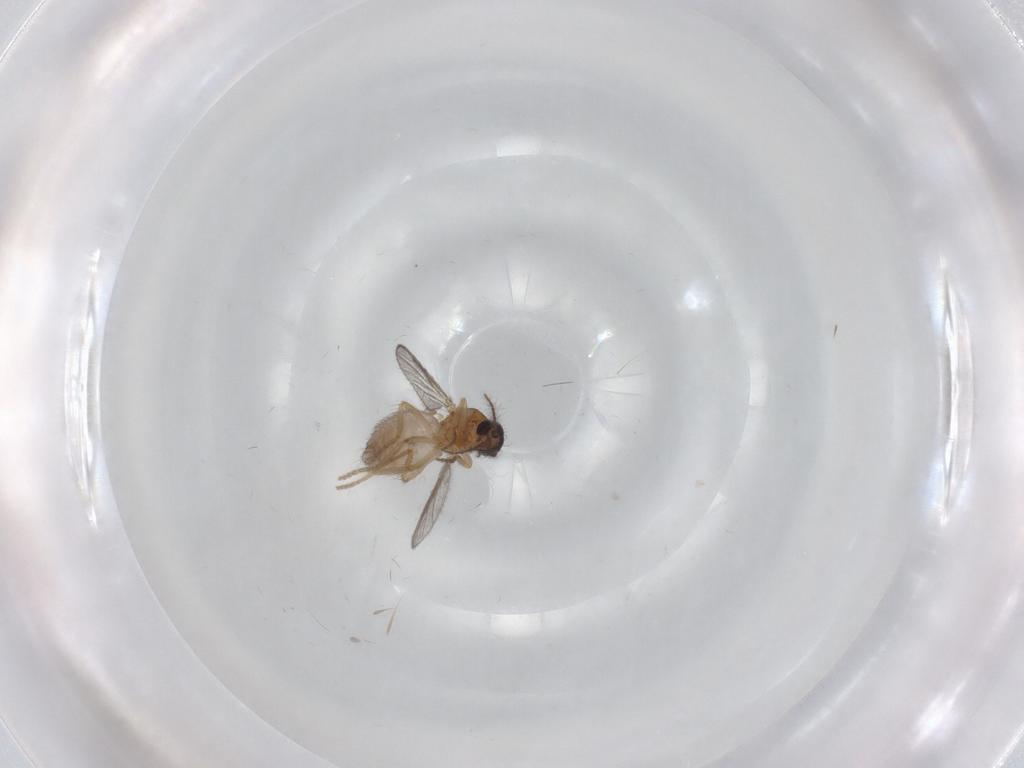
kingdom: Animalia
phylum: Arthropoda
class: Insecta
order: Diptera
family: Ceratopogonidae
